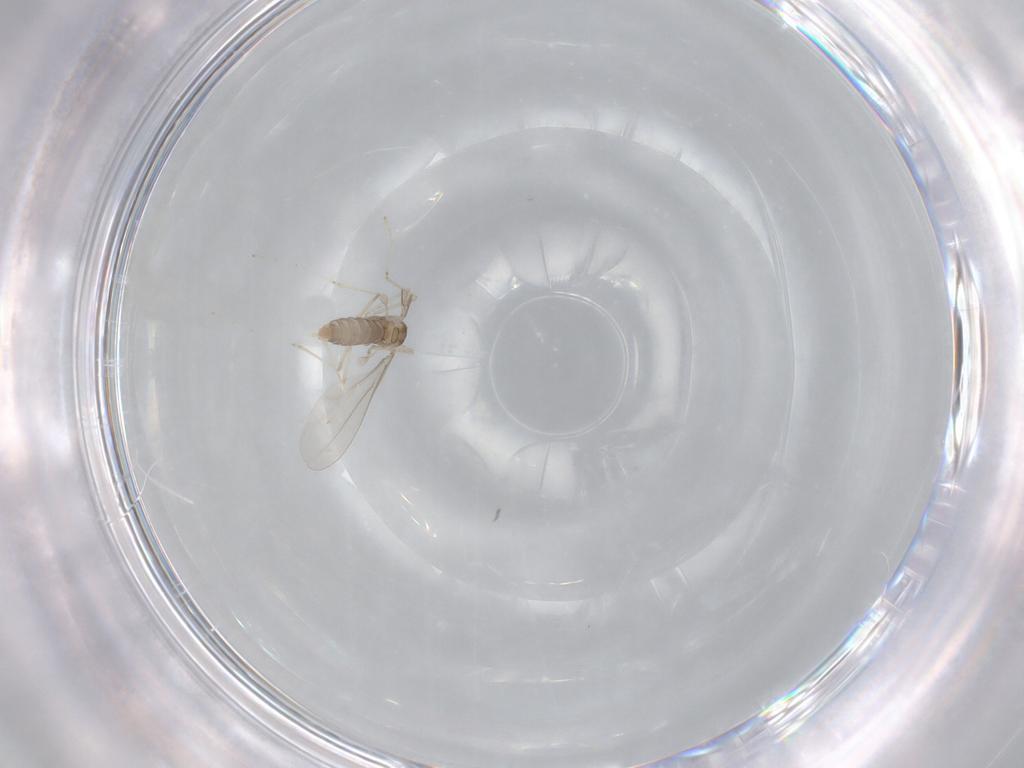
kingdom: Animalia
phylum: Arthropoda
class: Insecta
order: Diptera
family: Cecidomyiidae
